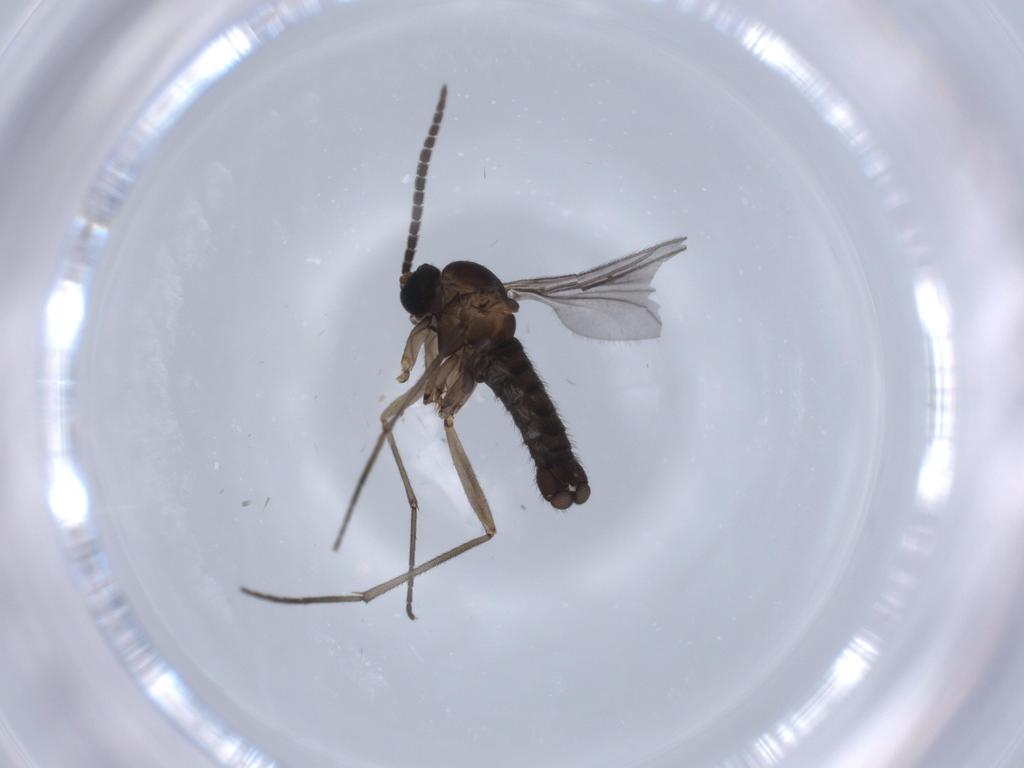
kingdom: Animalia
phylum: Arthropoda
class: Insecta
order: Diptera
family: Sciaridae
